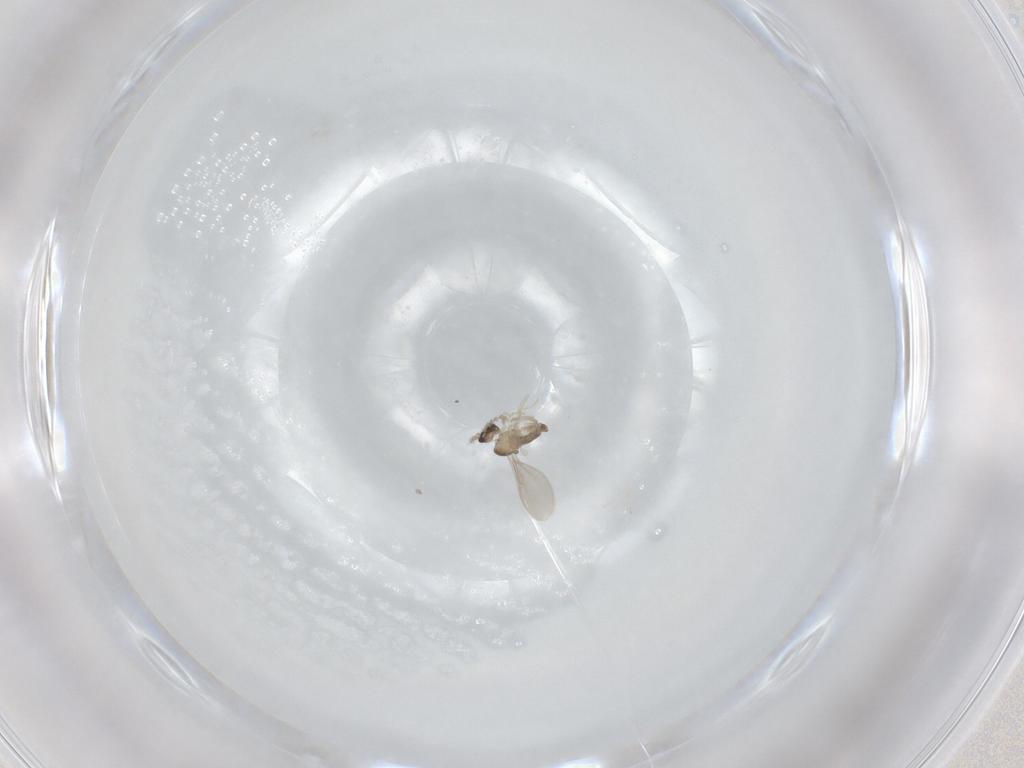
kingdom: Animalia
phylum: Arthropoda
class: Insecta
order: Diptera
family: Cecidomyiidae
